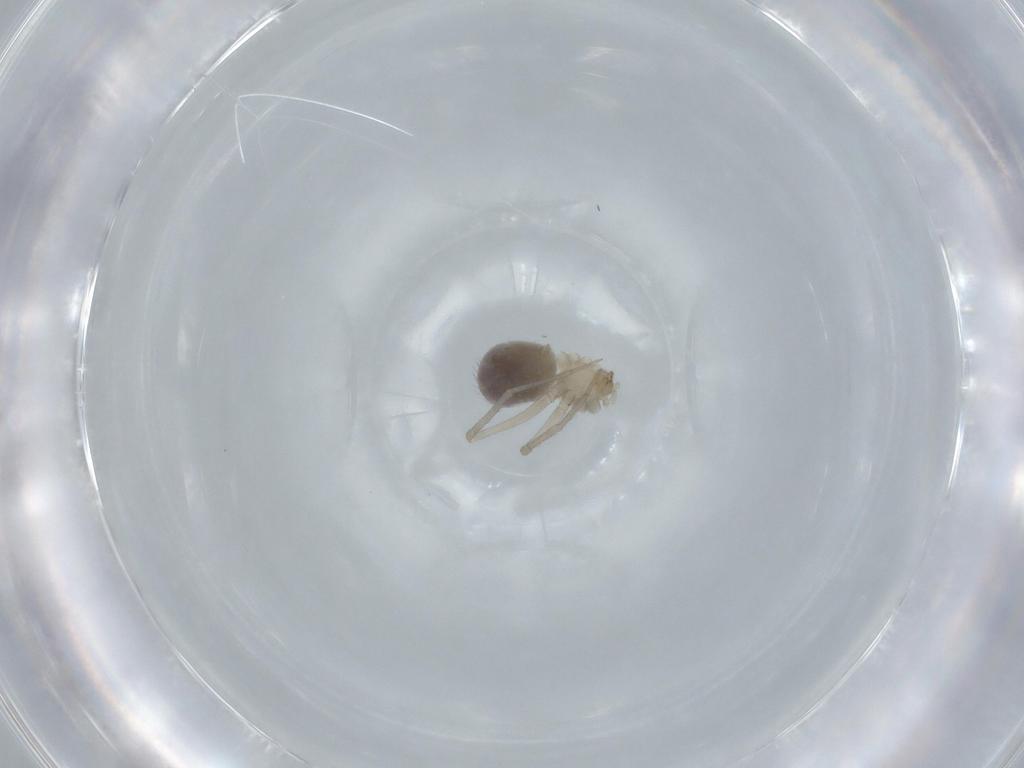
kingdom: Animalia
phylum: Arthropoda
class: Arachnida
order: Araneae
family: Pholcidae
